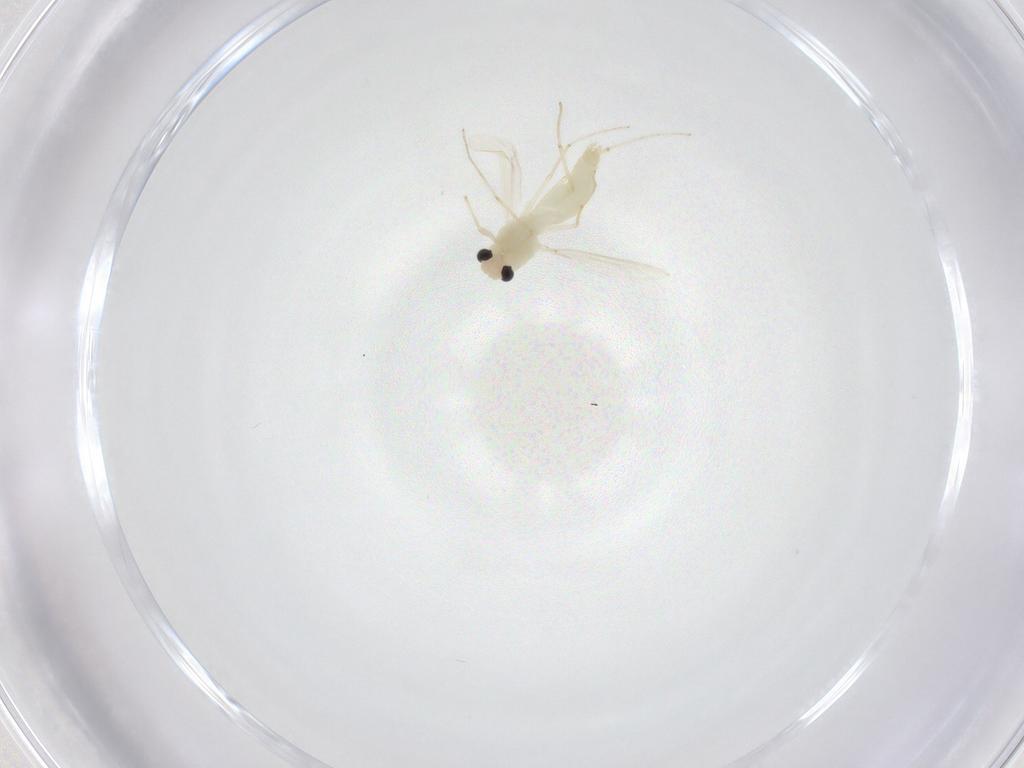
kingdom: Animalia
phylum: Arthropoda
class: Insecta
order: Diptera
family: Chironomidae
